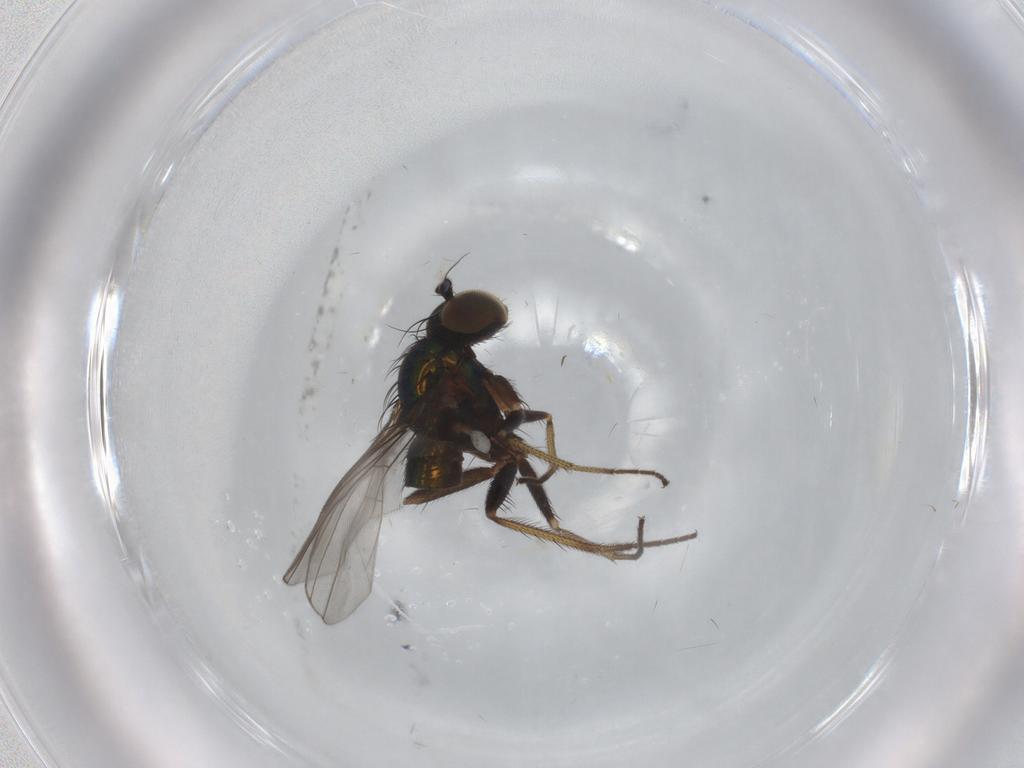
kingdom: Animalia
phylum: Arthropoda
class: Insecta
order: Diptera
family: Dolichopodidae
